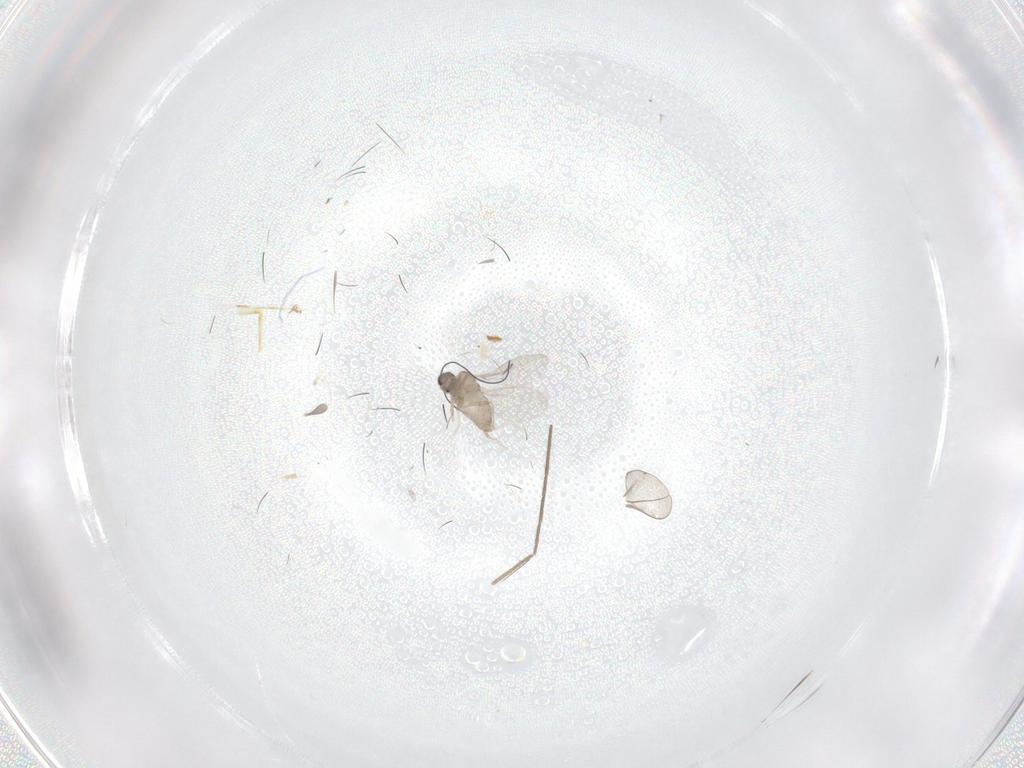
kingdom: Animalia
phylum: Arthropoda
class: Insecta
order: Diptera
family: Cecidomyiidae
